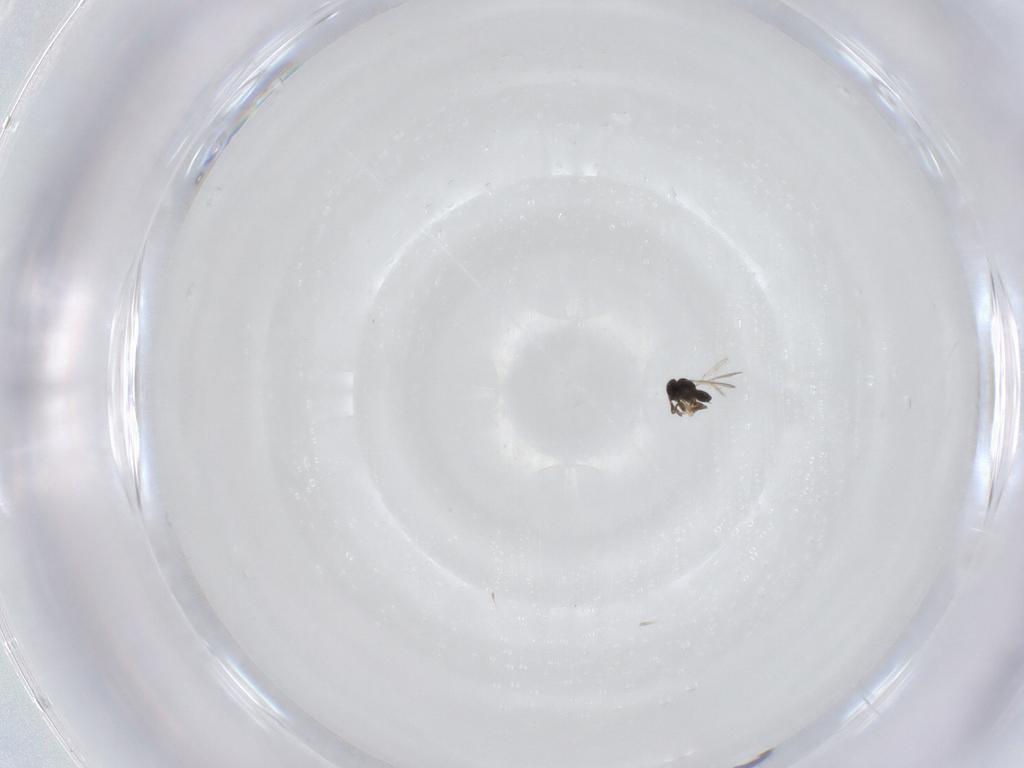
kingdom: Animalia
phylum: Arthropoda
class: Insecta
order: Hymenoptera
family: Scelionidae
